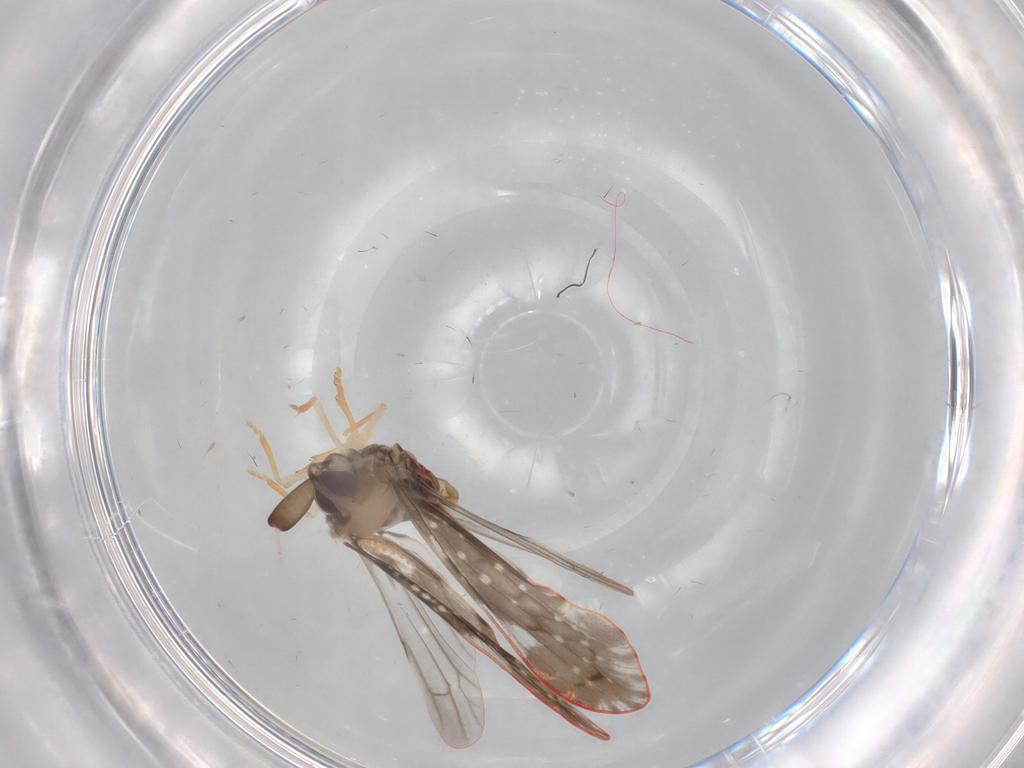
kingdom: Animalia
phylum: Arthropoda
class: Insecta
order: Hemiptera
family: Derbidae
